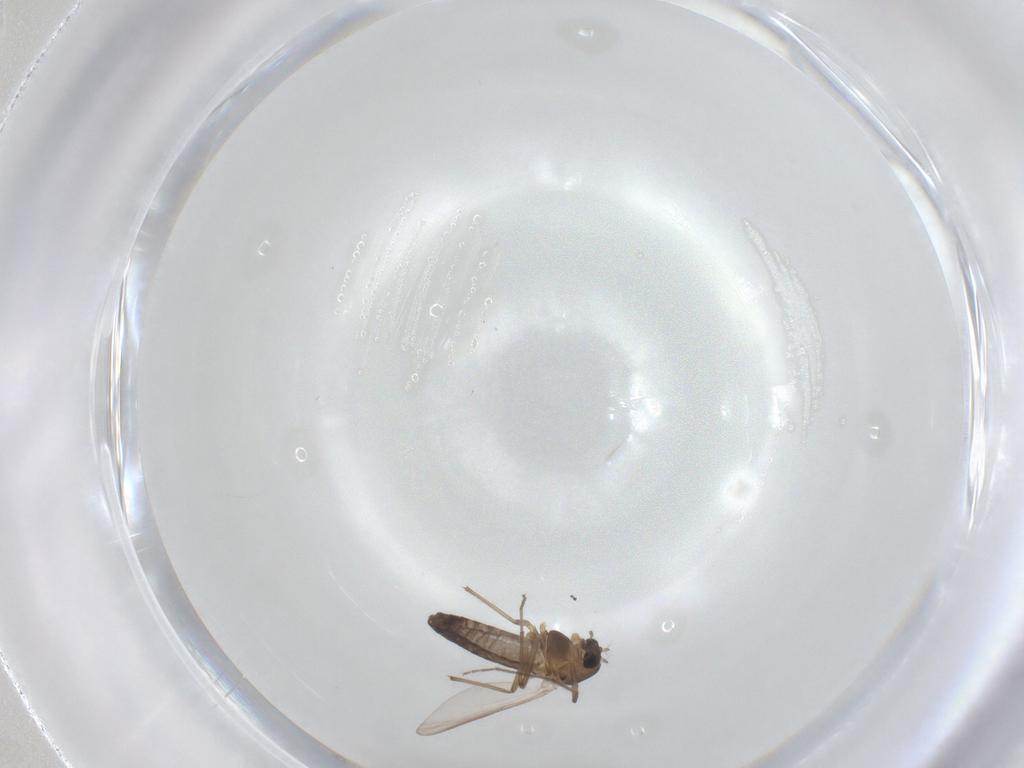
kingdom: Animalia
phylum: Arthropoda
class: Insecta
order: Diptera
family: Chironomidae
